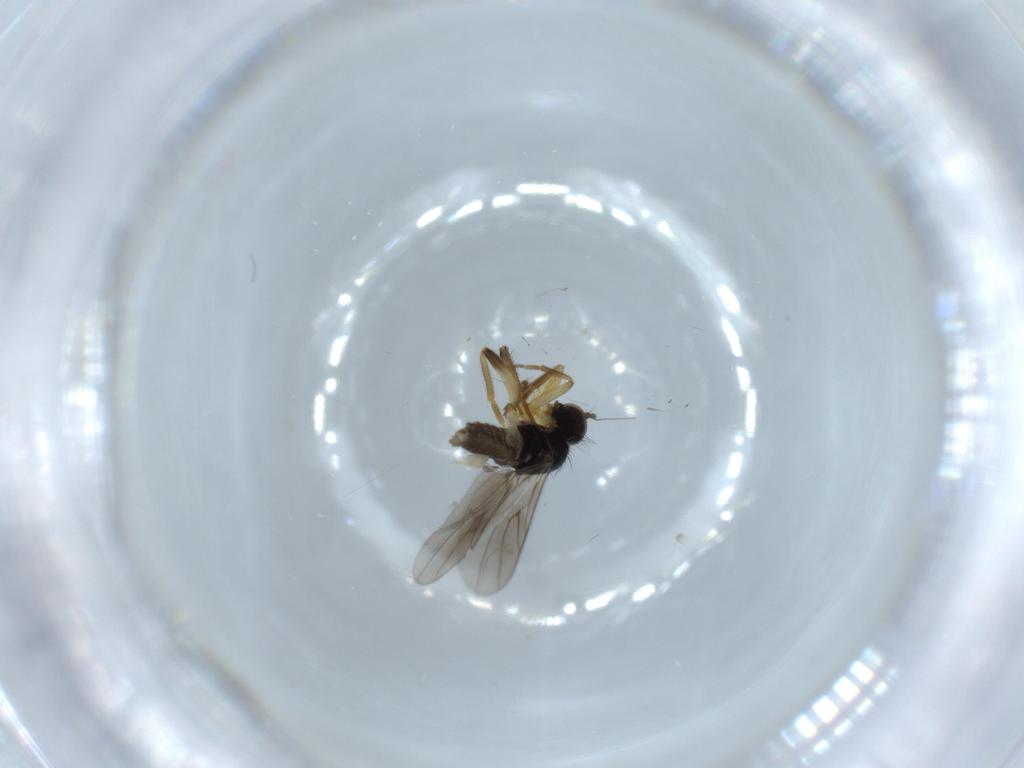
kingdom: Animalia
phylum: Arthropoda
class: Insecta
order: Diptera
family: Hybotidae
